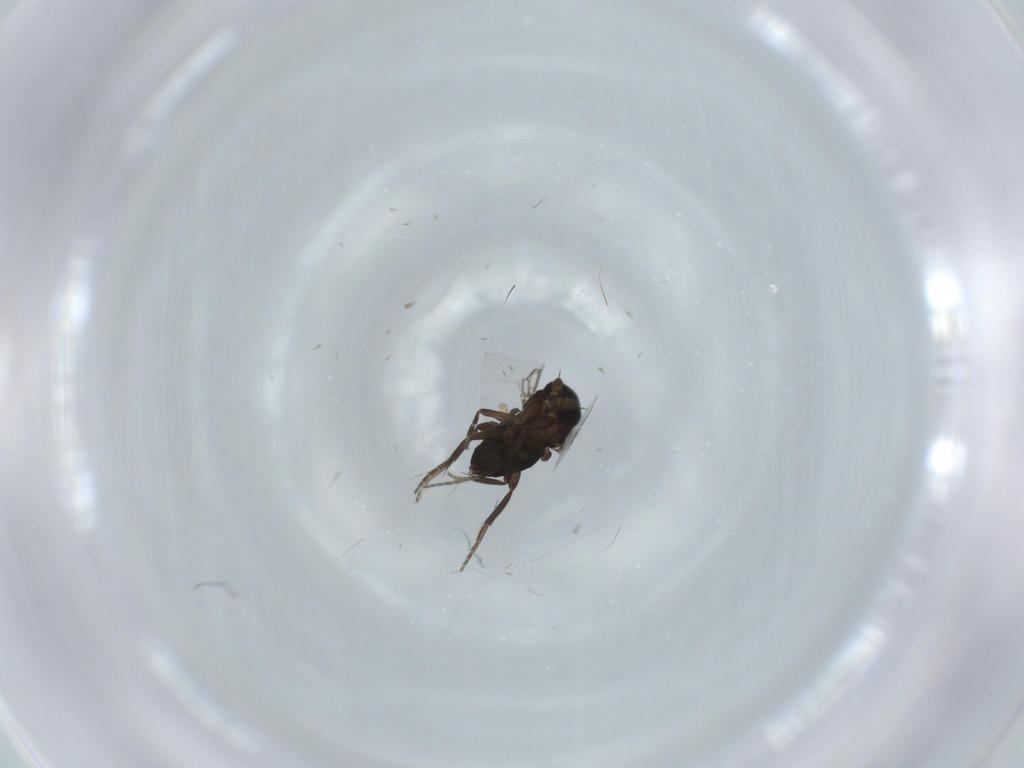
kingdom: Animalia
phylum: Arthropoda
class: Insecta
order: Diptera
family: Phoridae
